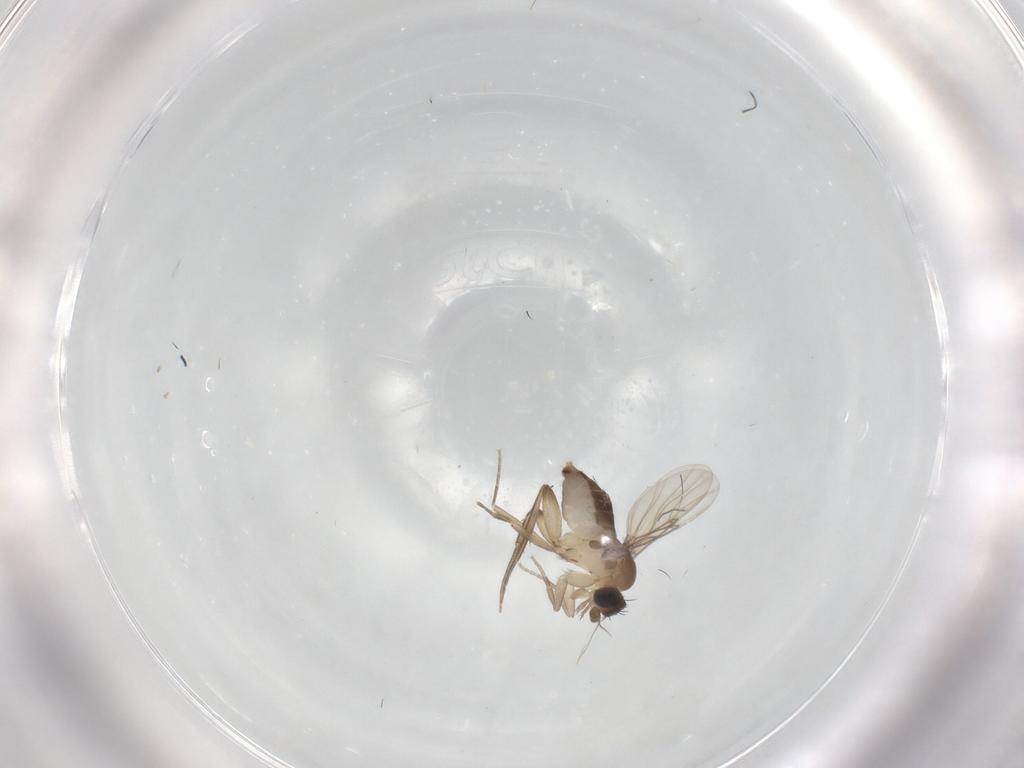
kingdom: Animalia
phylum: Arthropoda
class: Insecta
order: Diptera
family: Phoridae
